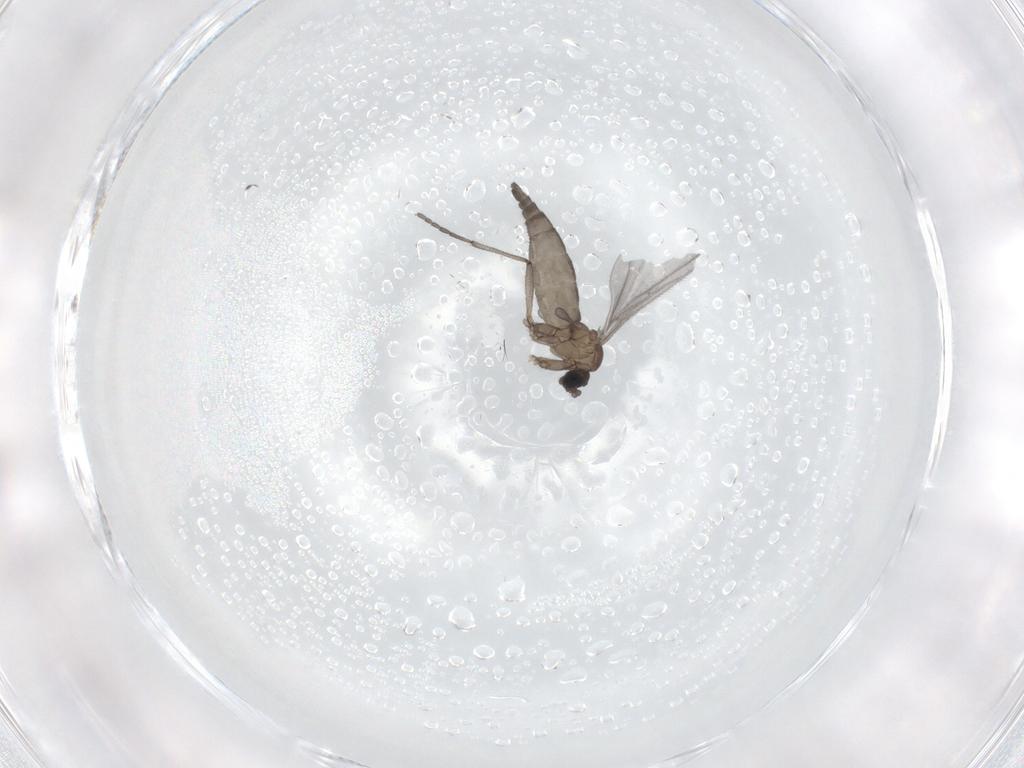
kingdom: Animalia
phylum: Arthropoda
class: Insecta
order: Diptera
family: Sciaridae
